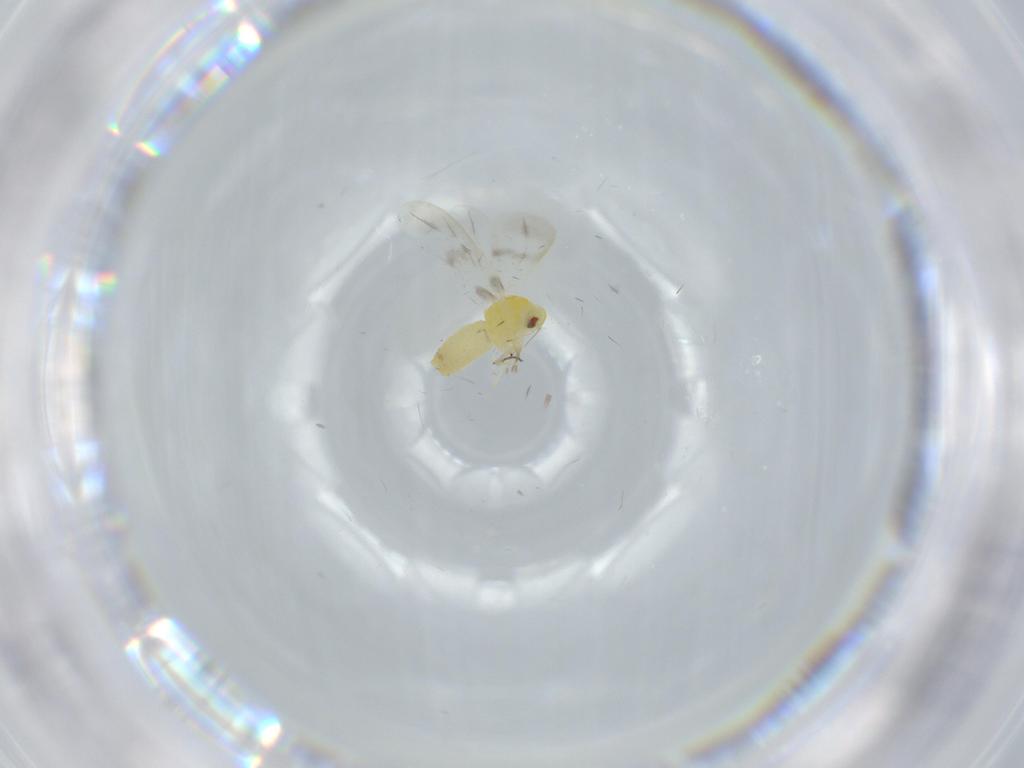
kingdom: Animalia
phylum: Arthropoda
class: Insecta
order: Hemiptera
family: Aleyrodidae
